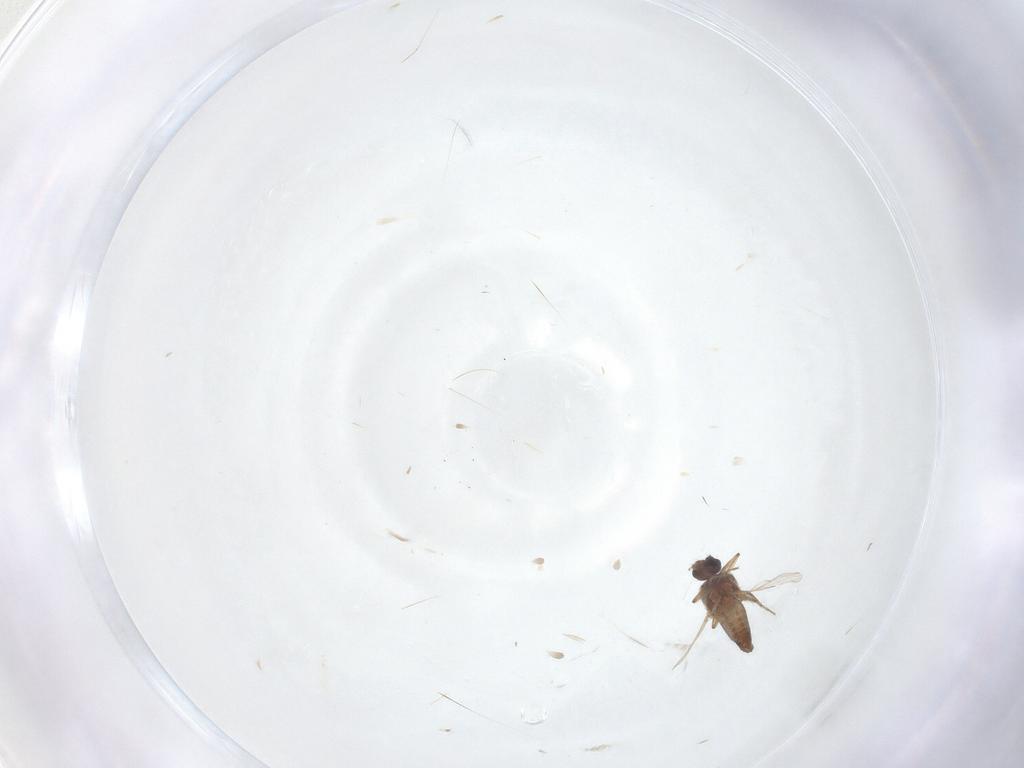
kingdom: Animalia
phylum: Arthropoda
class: Insecta
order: Diptera
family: Ceratopogonidae
